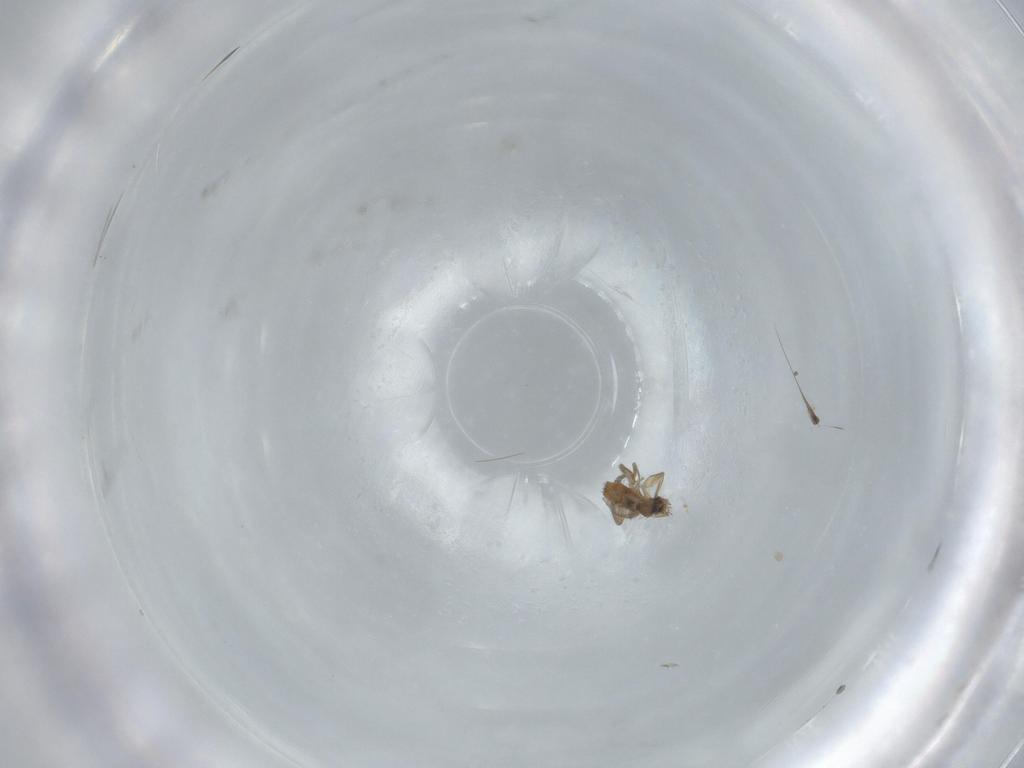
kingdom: Animalia
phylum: Arthropoda
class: Insecta
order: Diptera
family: Phoridae
